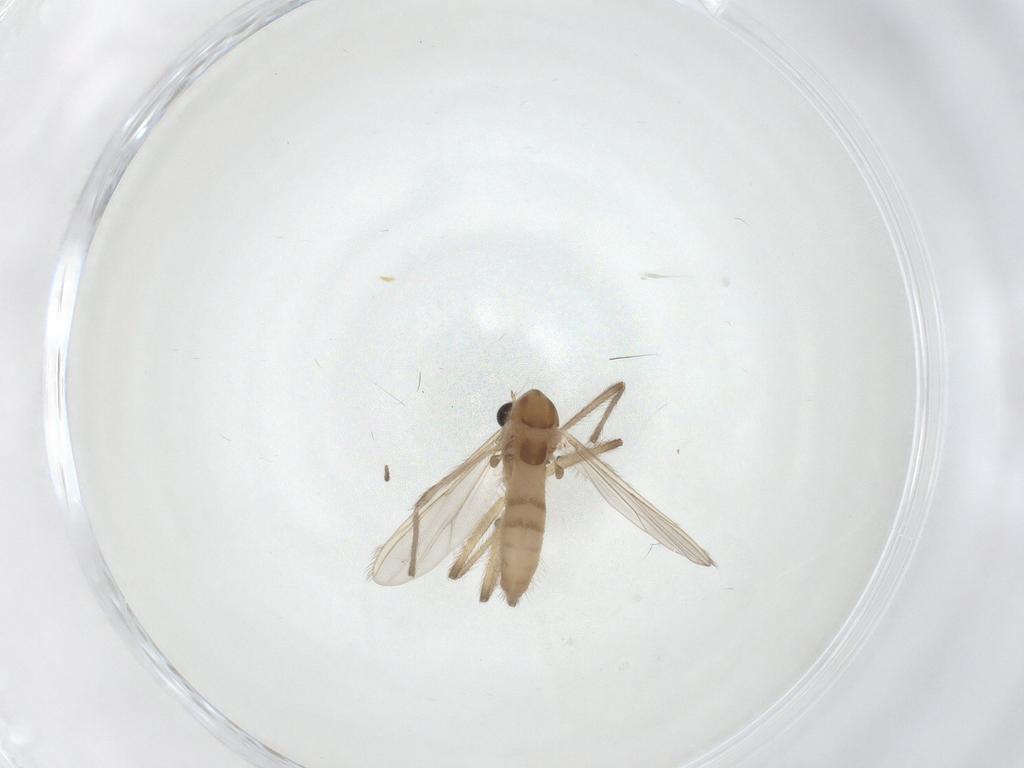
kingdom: Animalia
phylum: Arthropoda
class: Insecta
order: Diptera
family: Chironomidae
